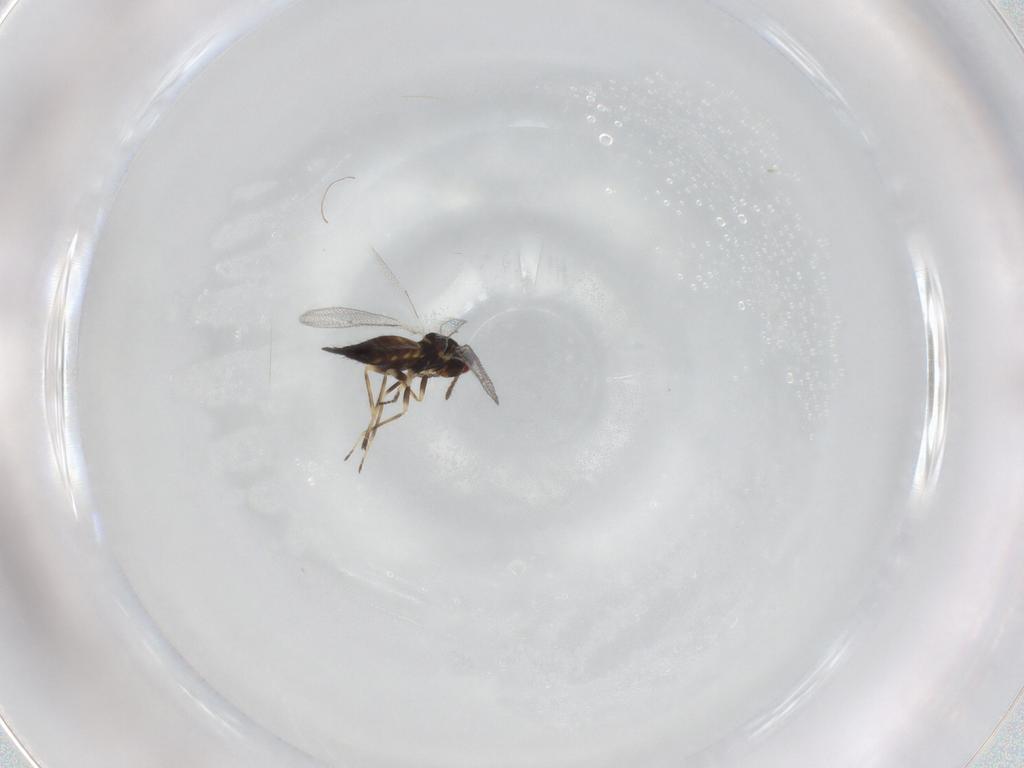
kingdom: Animalia
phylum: Arthropoda
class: Insecta
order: Hymenoptera
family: Eulophidae
